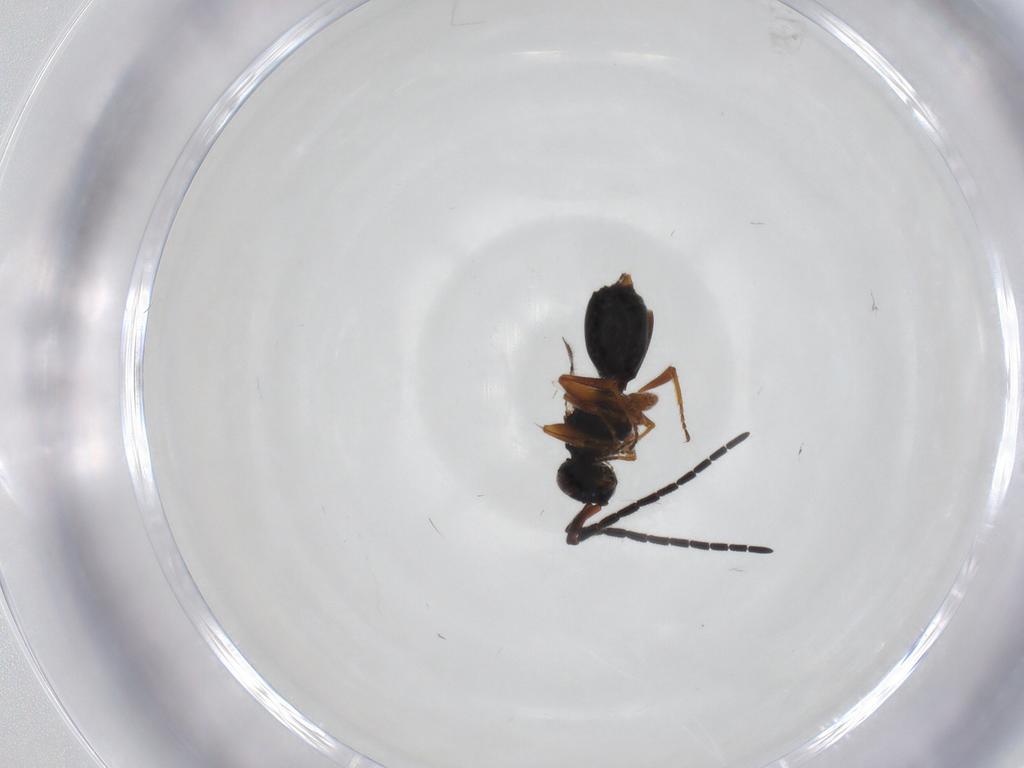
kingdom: Animalia
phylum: Arthropoda
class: Insecta
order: Hymenoptera
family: Megaspilidae
